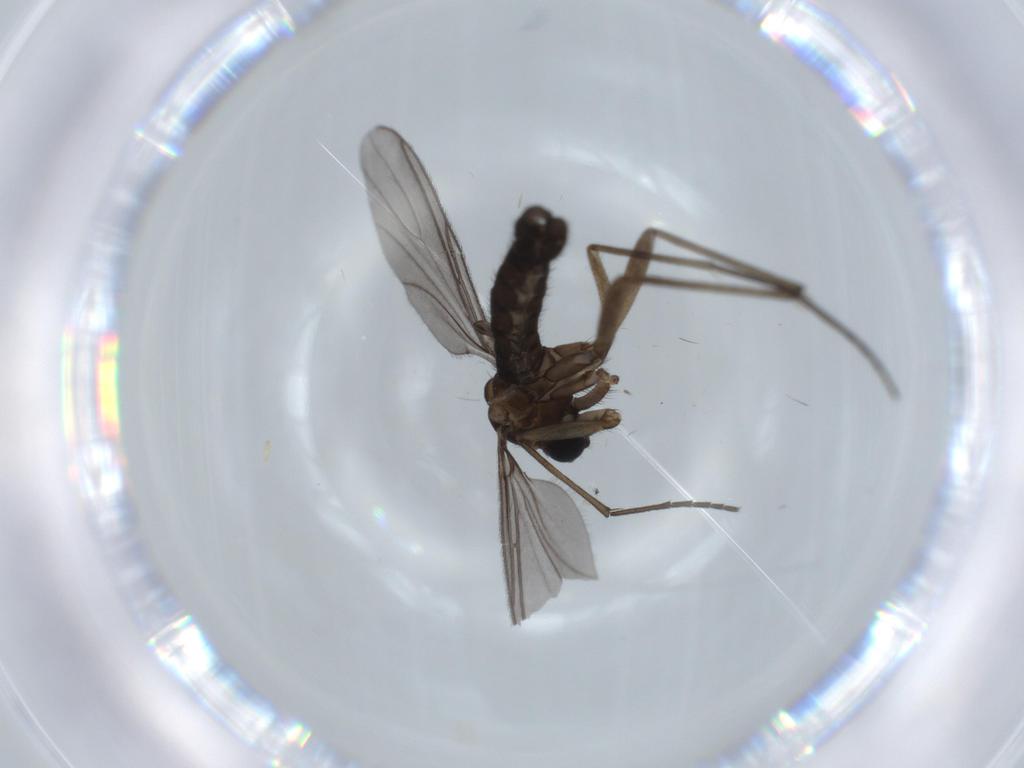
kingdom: Animalia
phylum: Arthropoda
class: Insecta
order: Diptera
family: Sciaridae
